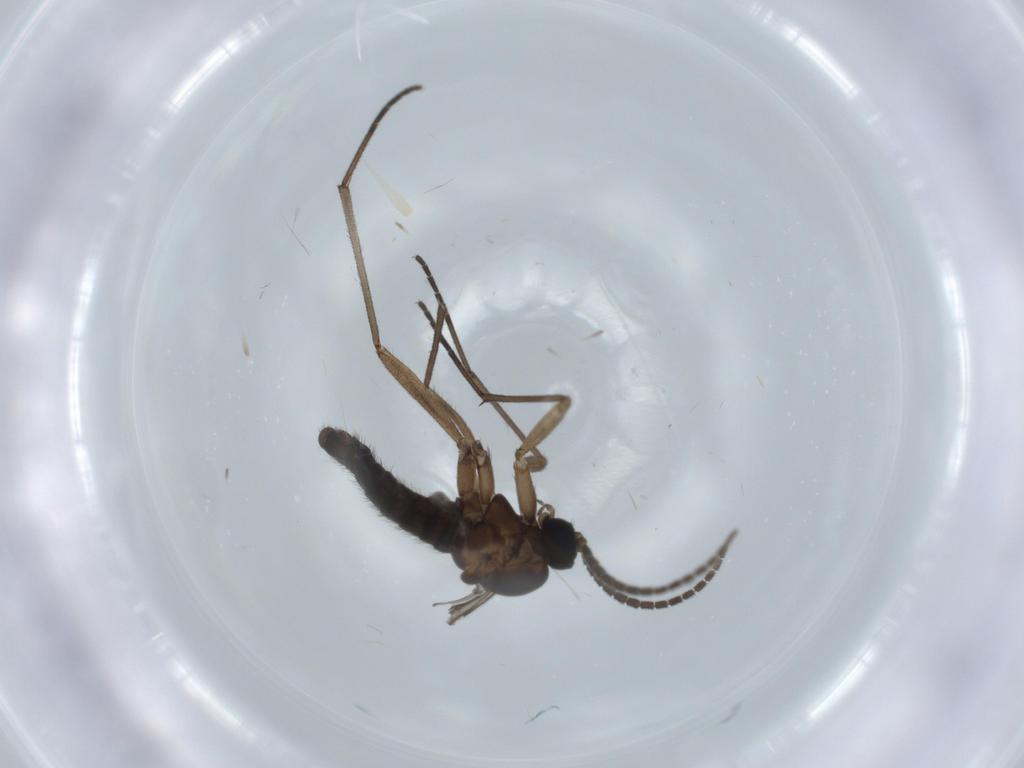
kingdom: Animalia
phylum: Arthropoda
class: Insecta
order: Diptera
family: Sciaridae
